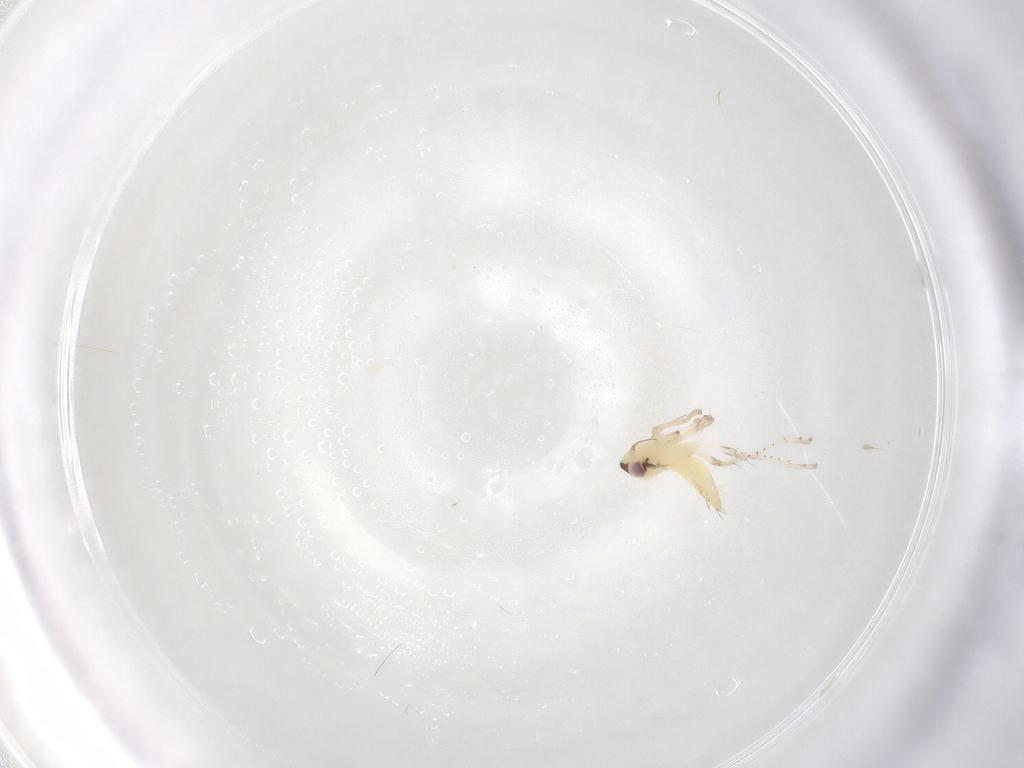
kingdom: Animalia
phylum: Arthropoda
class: Insecta
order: Hemiptera
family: Cicadellidae
